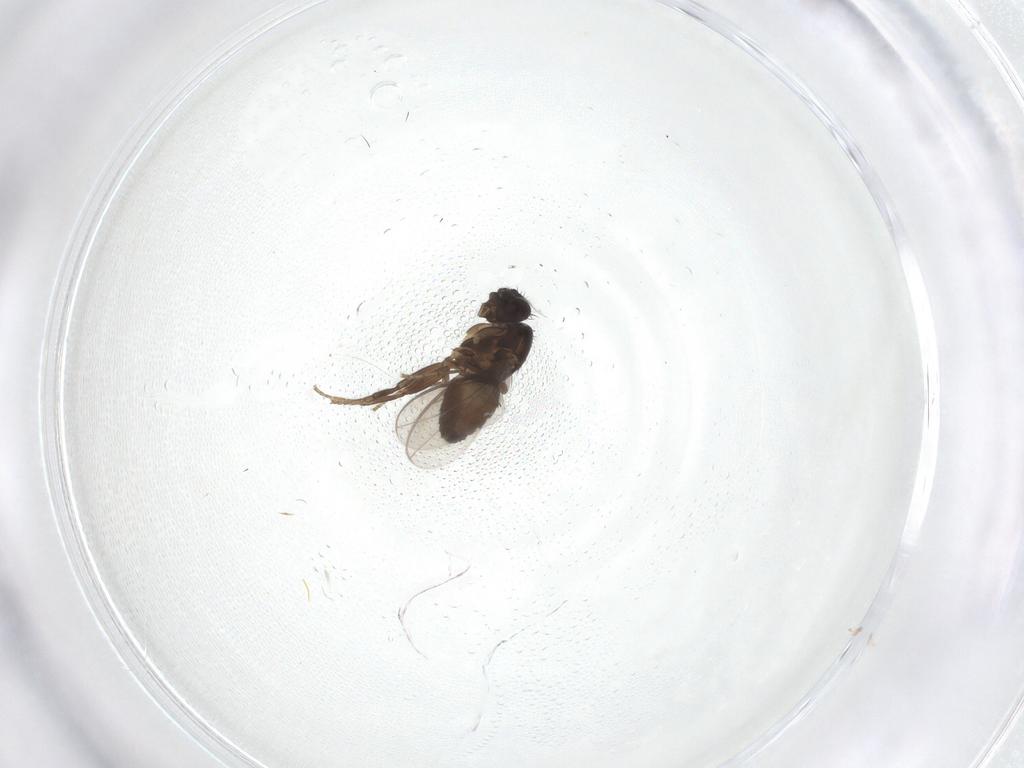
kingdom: Animalia
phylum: Arthropoda
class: Insecta
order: Diptera
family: Sphaeroceridae
